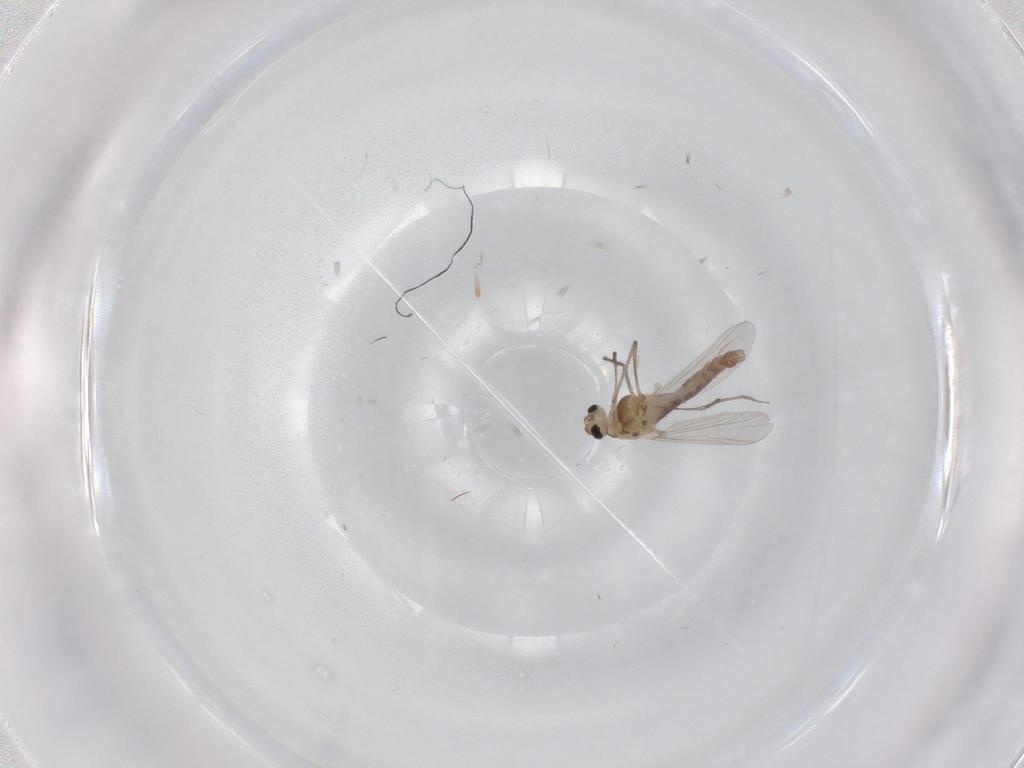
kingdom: Animalia
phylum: Arthropoda
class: Insecta
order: Diptera
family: Chironomidae
